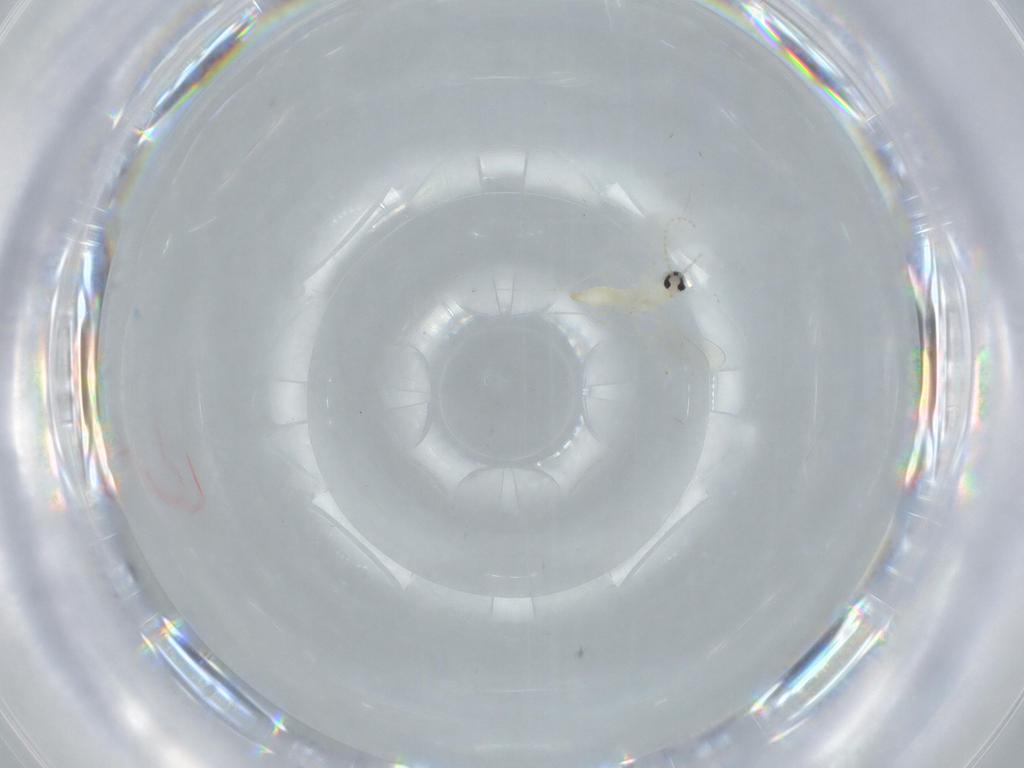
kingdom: Animalia
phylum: Arthropoda
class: Insecta
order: Diptera
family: Cecidomyiidae
